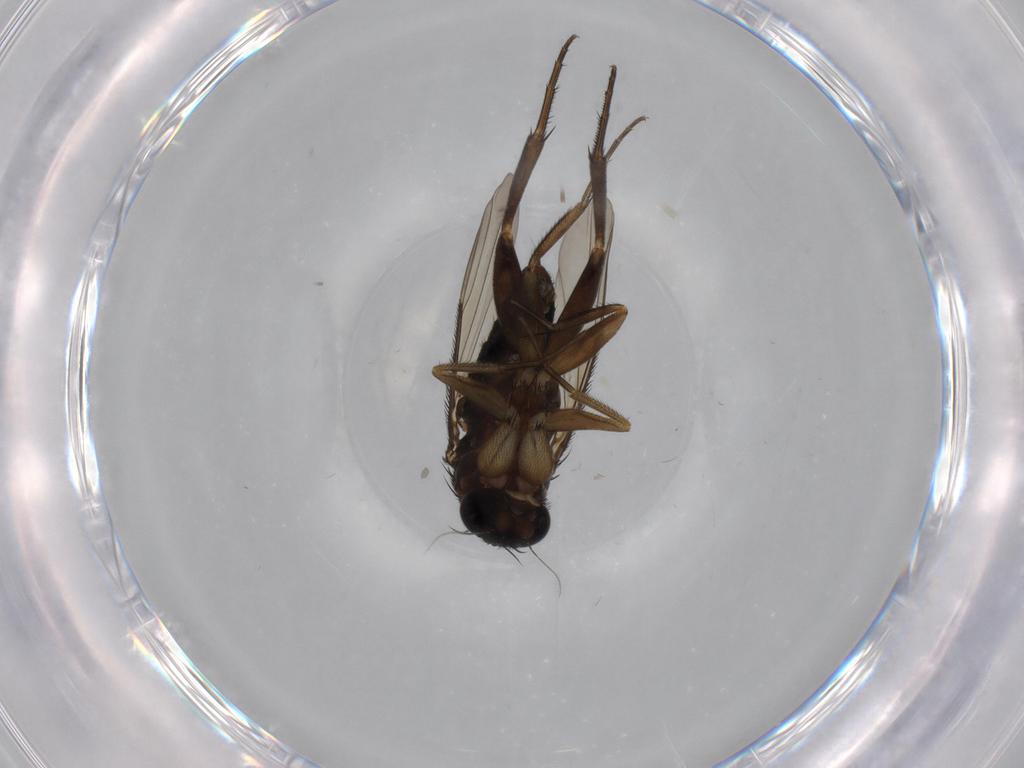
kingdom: Animalia
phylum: Arthropoda
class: Insecta
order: Diptera
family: Phoridae
